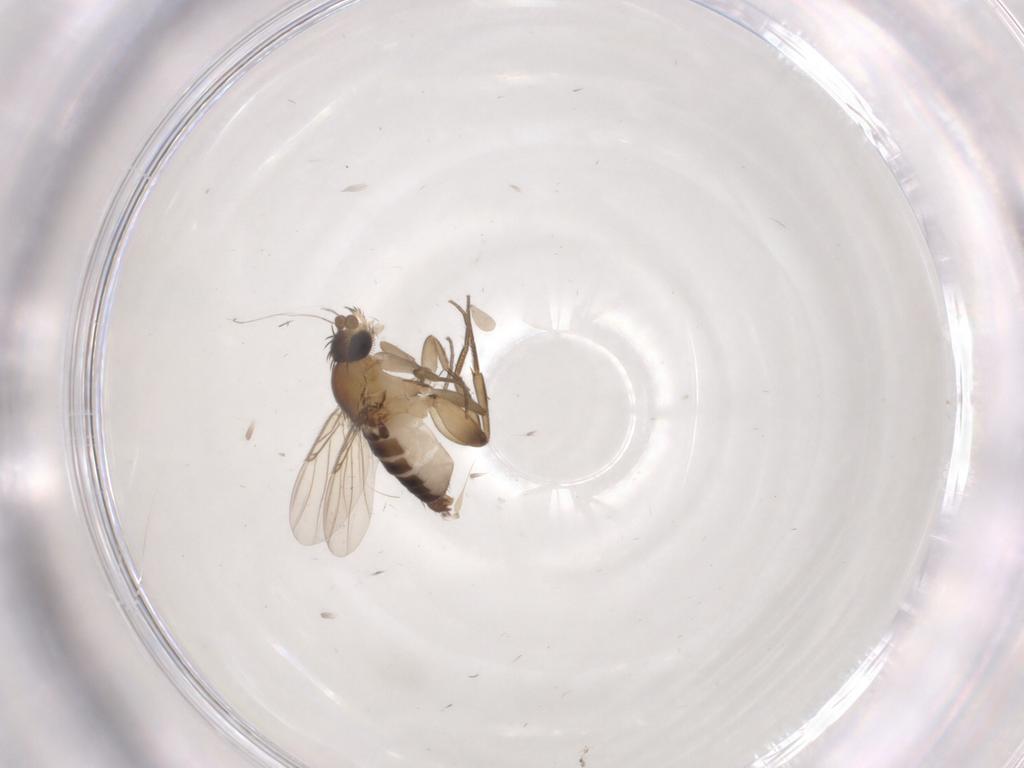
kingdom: Animalia
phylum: Arthropoda
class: Insecta
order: Diptera
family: Phoridae
